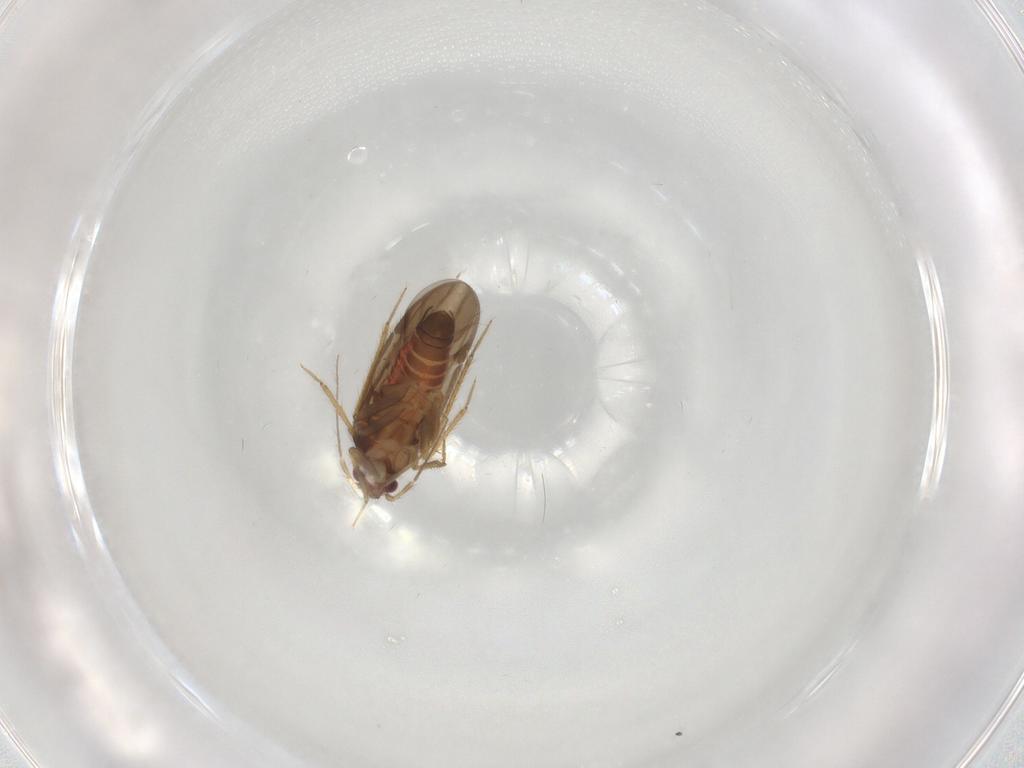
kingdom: Animalia
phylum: Arthropoda
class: Insecta
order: Hemiptera
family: Ceratocombidae
